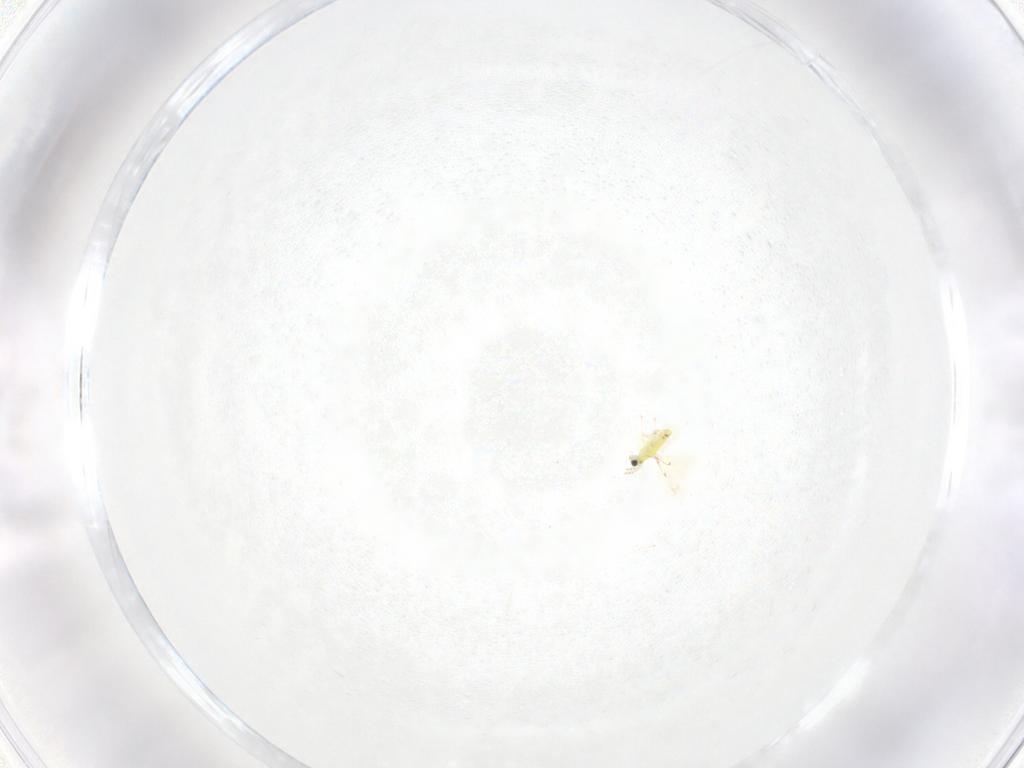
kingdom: Animalia
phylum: Arthropoda
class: Insecta
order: Hymenoptera
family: Trichogrammatidae
